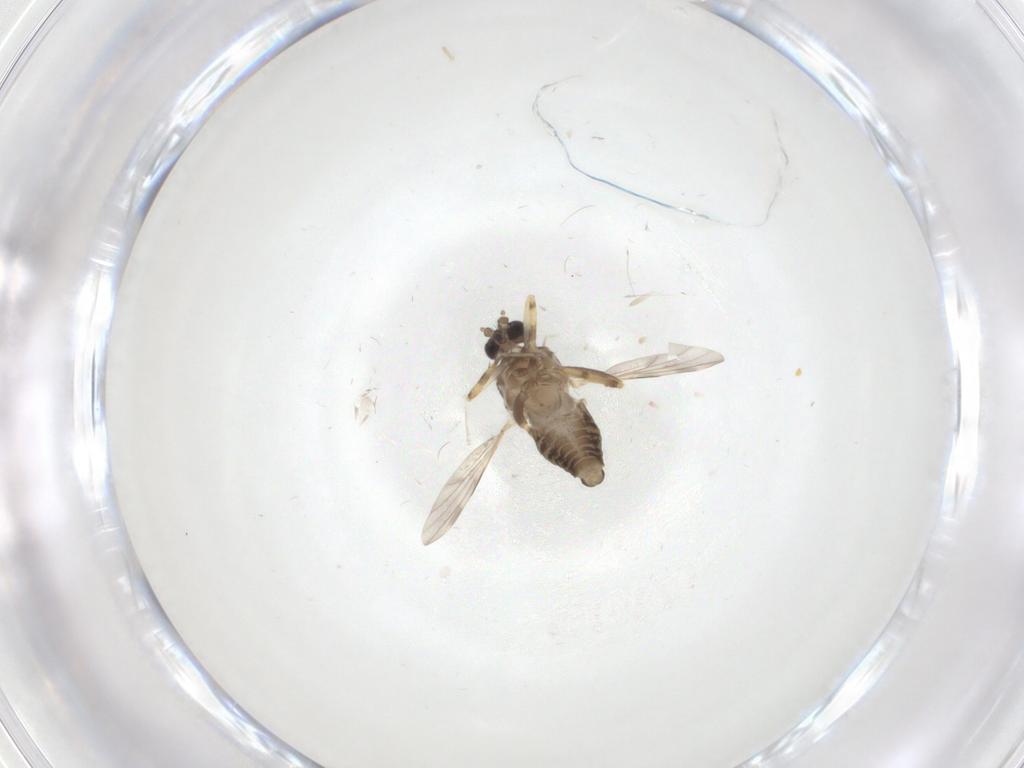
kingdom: Animalia
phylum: Arthropoda
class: Insecta
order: Diptera
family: Ceratopogonidae
